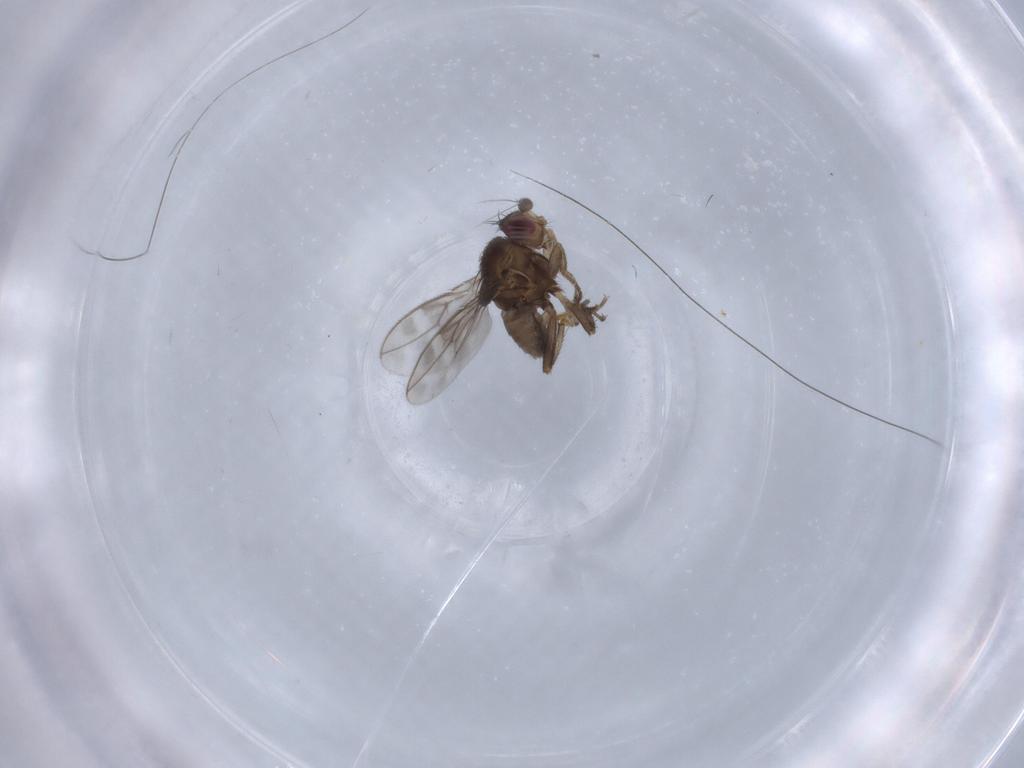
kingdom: Animalia
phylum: Arthropoda
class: Insecta
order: Diptera
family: Sphaeroceridae
